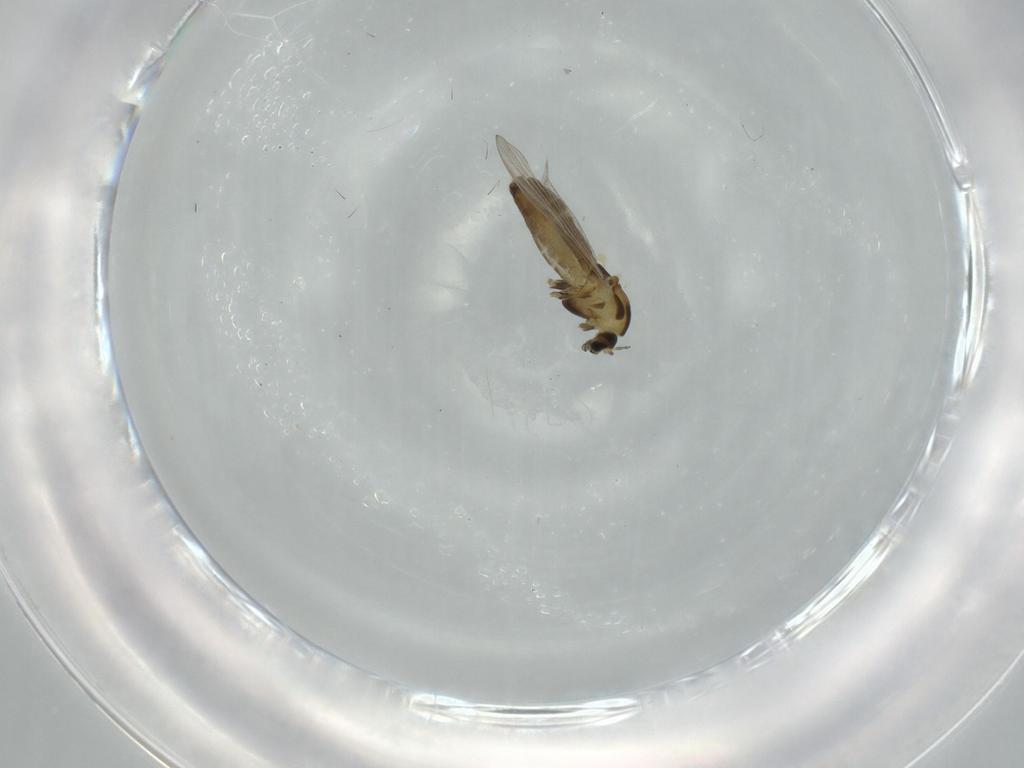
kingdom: Animalia
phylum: Arthropoda
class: Insecta
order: Diptera
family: Chironomidae
